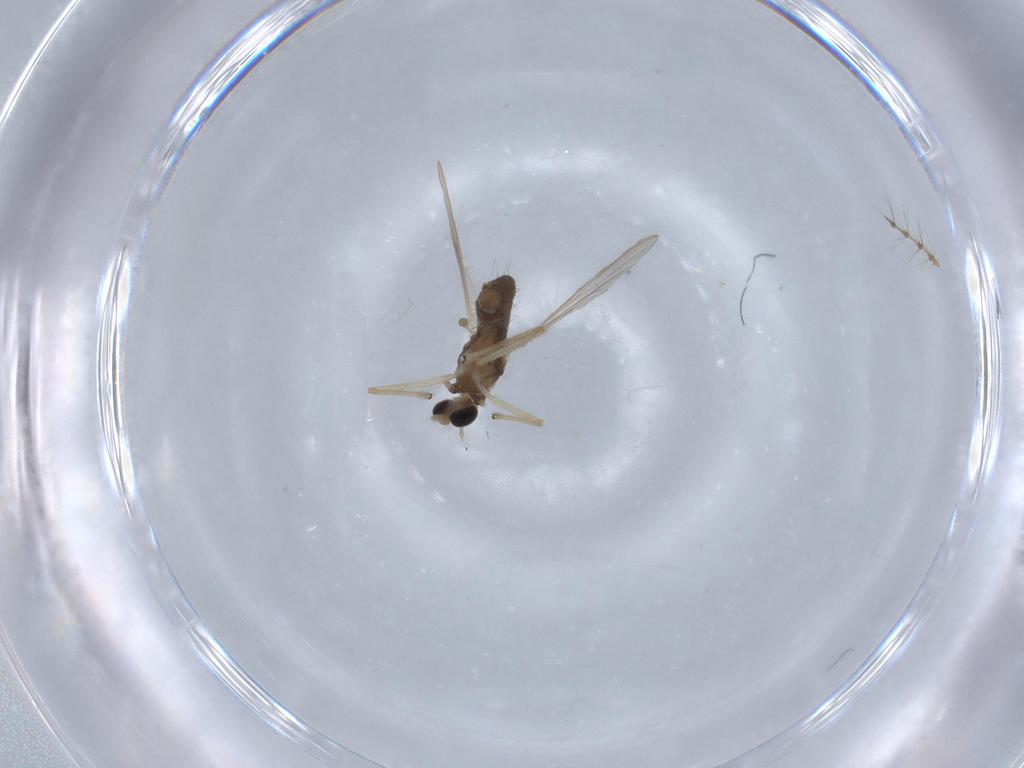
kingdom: Animalia
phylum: Arthropoda
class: Insecta
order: Diptera
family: Chironomidae
